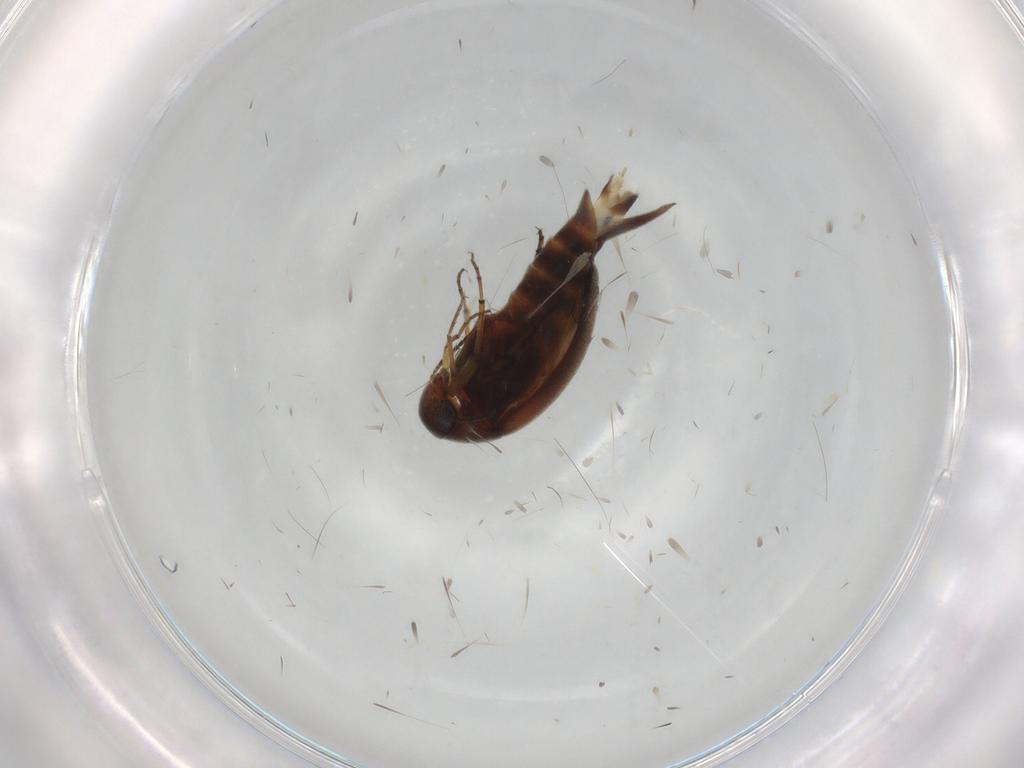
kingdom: Animalia
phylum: Arthropoda
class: Insecta
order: Coleoptera
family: Mordellidae
